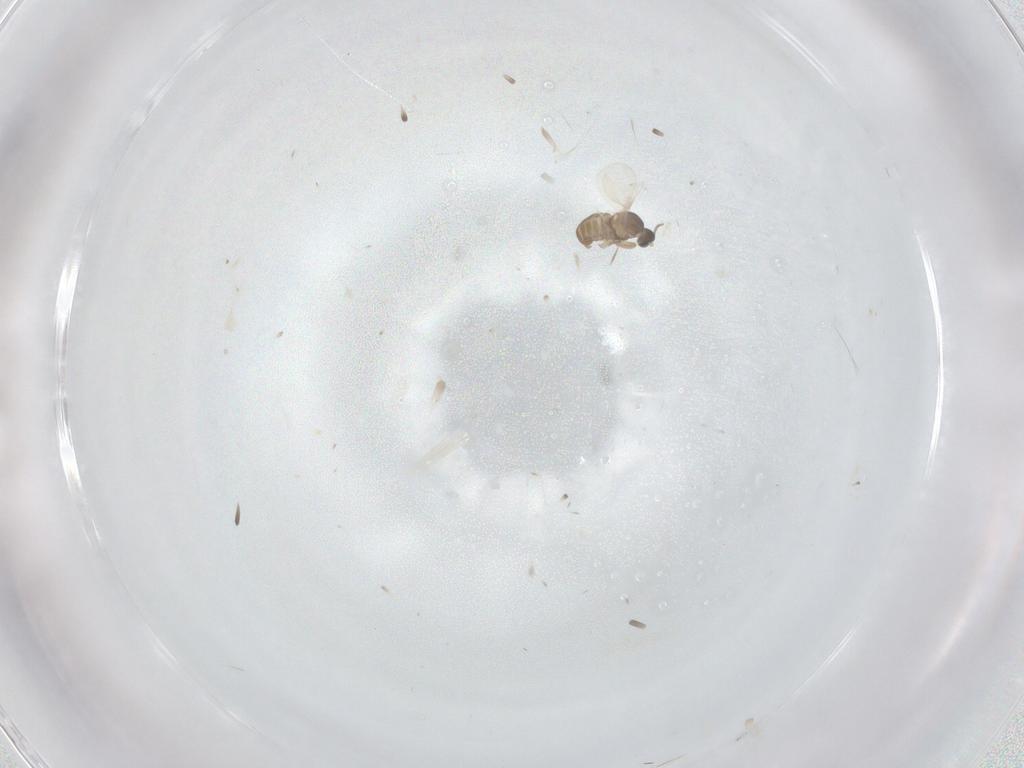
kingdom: Animalia
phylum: Arthropoda
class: Insecta
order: Diptera
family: Cecidomyiidae
